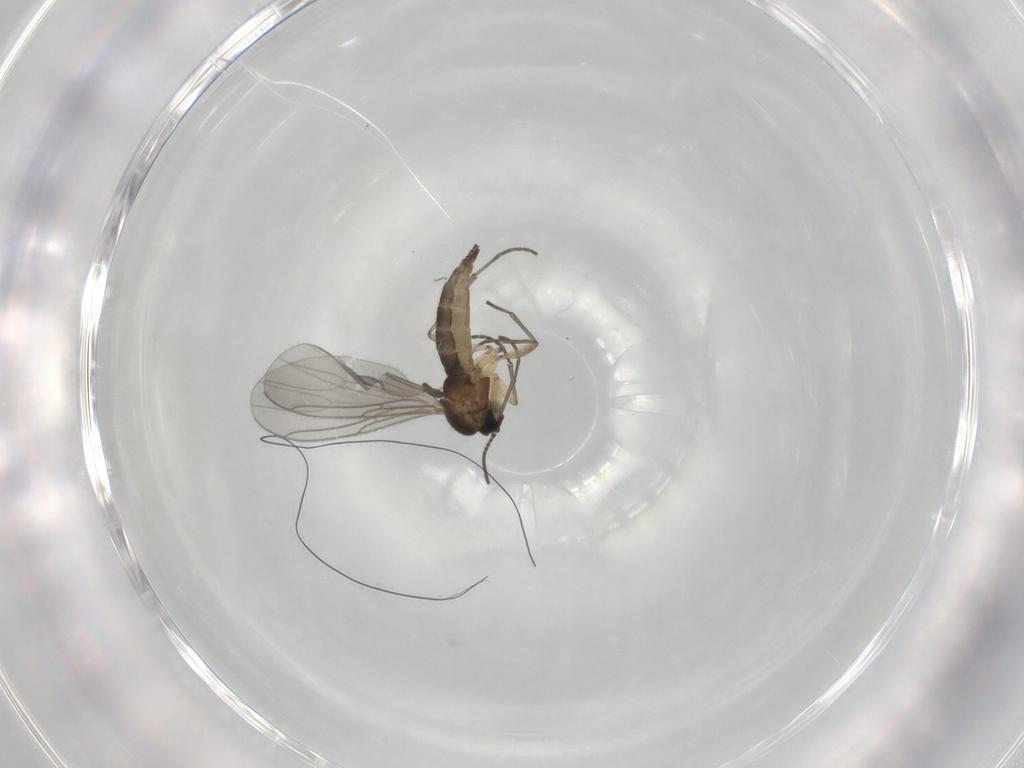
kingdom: Animalia
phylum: Arthropoda
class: Insecta
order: Diptera
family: Sciaridae
